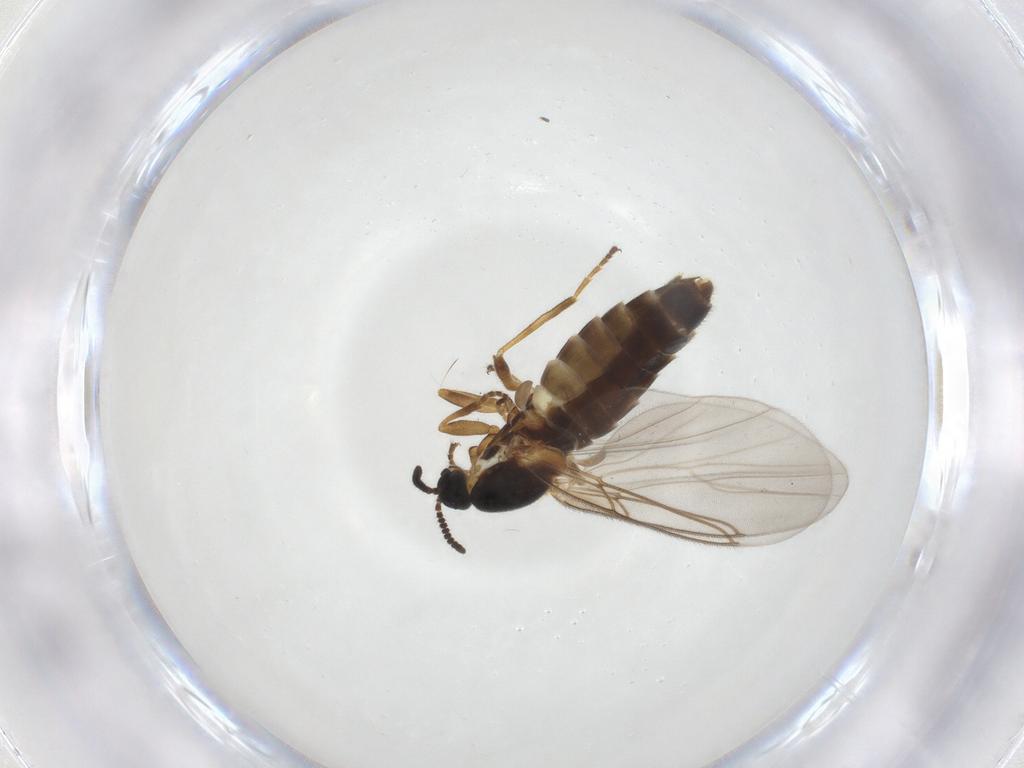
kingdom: Animalia
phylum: Arthropoda
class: Insecta
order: Diptera
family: Scatopsidae
